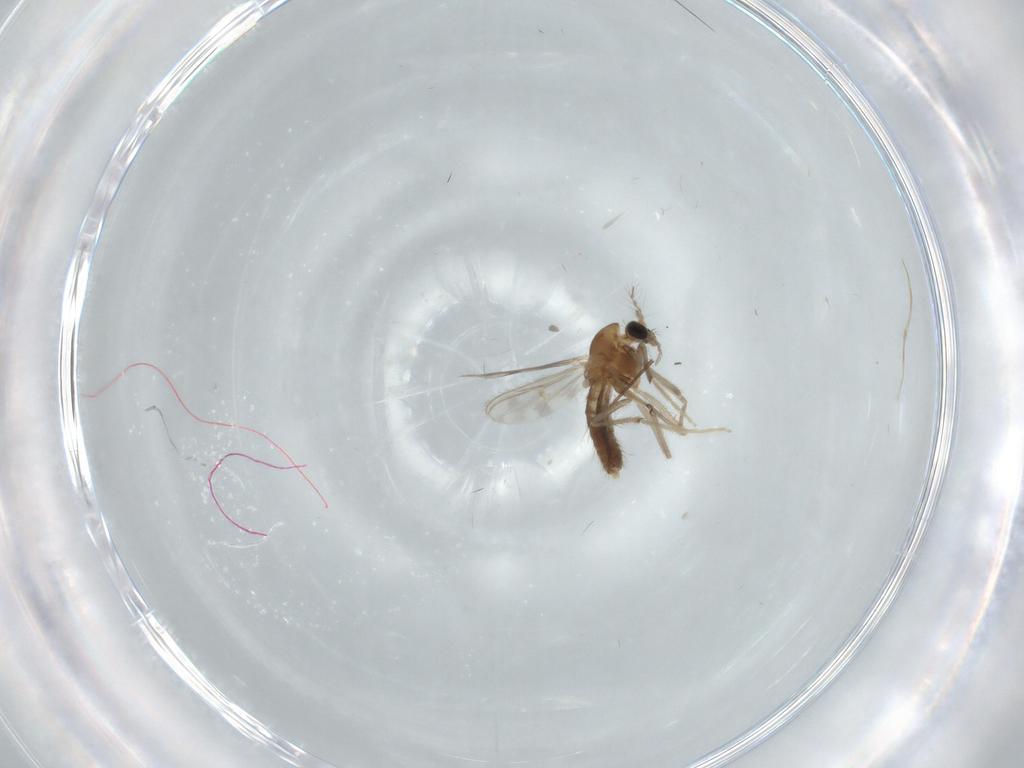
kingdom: Animalia
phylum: Arthropoda
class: Insecta
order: Diptera
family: Chironomidae
